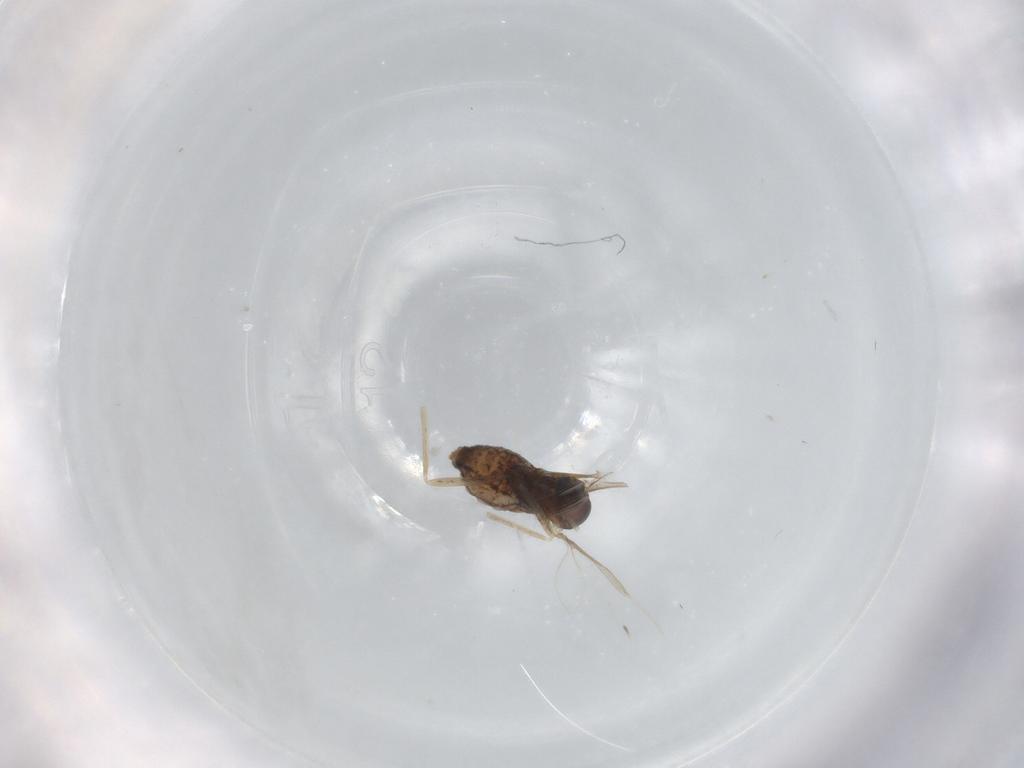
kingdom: Animalia
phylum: Arthropoda
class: Insecta
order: Diptera
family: Cecidomyiidae
